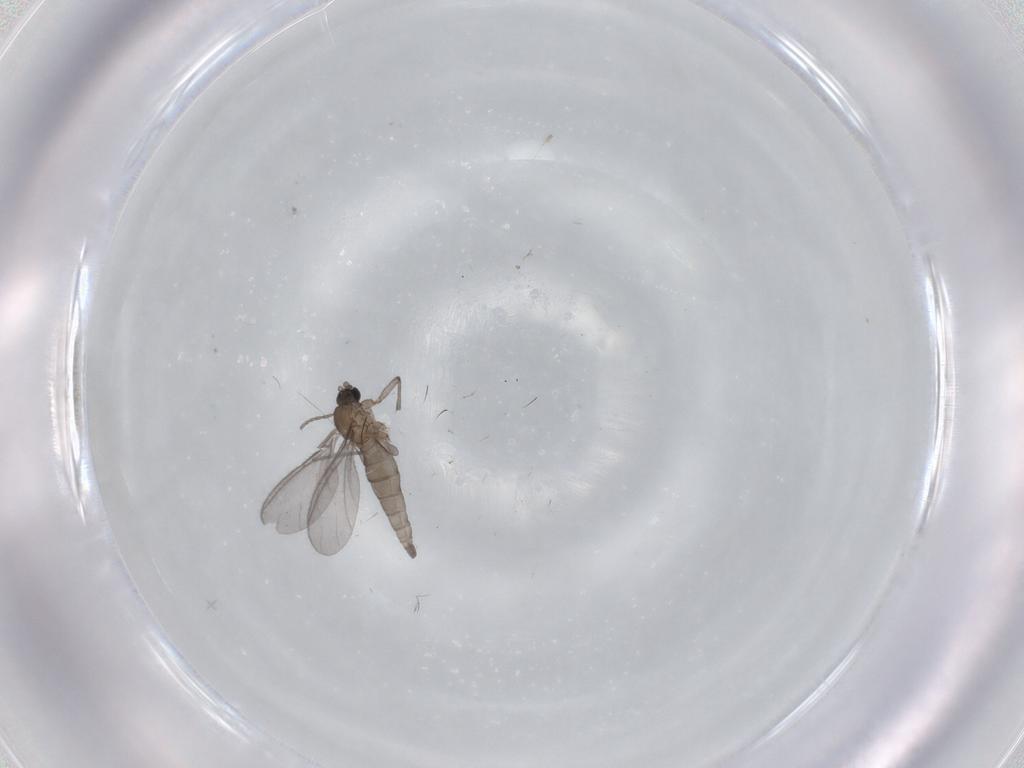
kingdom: Animalia
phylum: Arthropoda
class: Insecta
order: Diptera
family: Sciaridae
